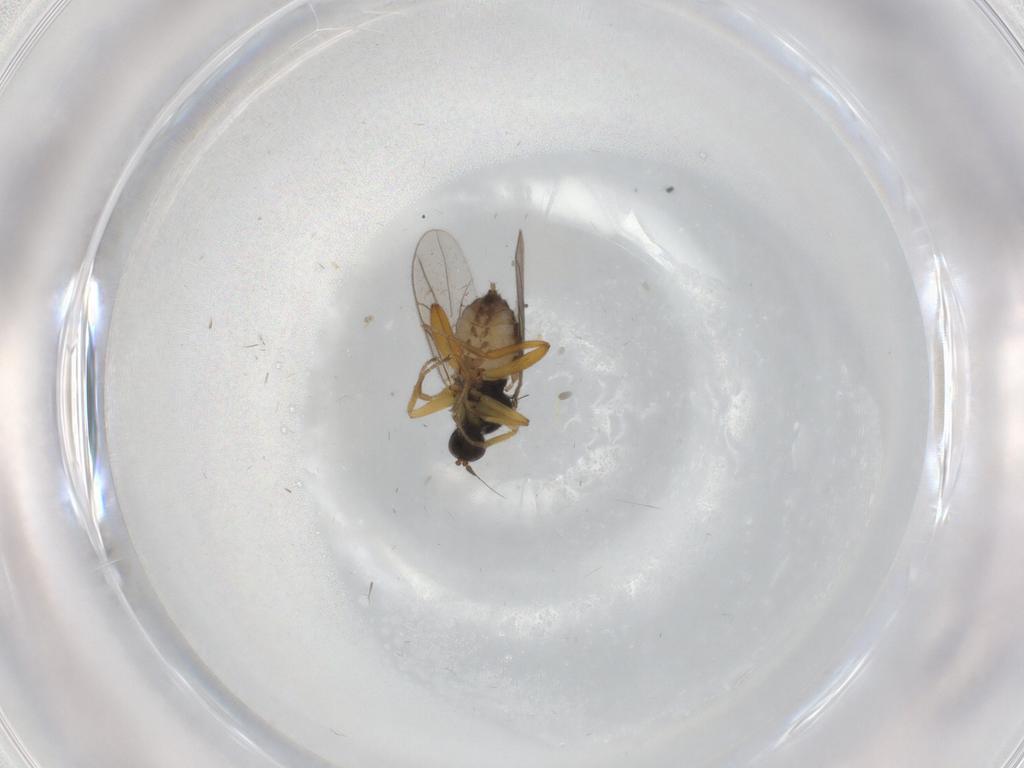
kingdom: Animalia
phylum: Arthropoda
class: Insecta
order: Diptera
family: Hybotidae
